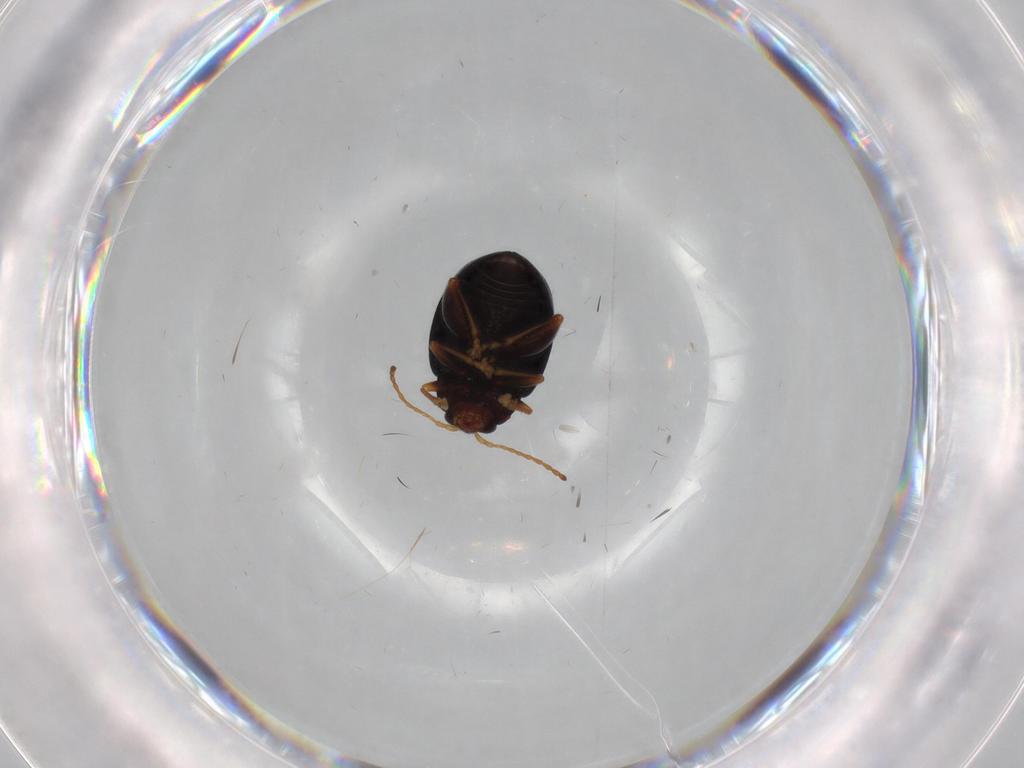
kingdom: Animalia
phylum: Arthropoda
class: Insecta
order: Coleoptera
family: Chrysomelidae
